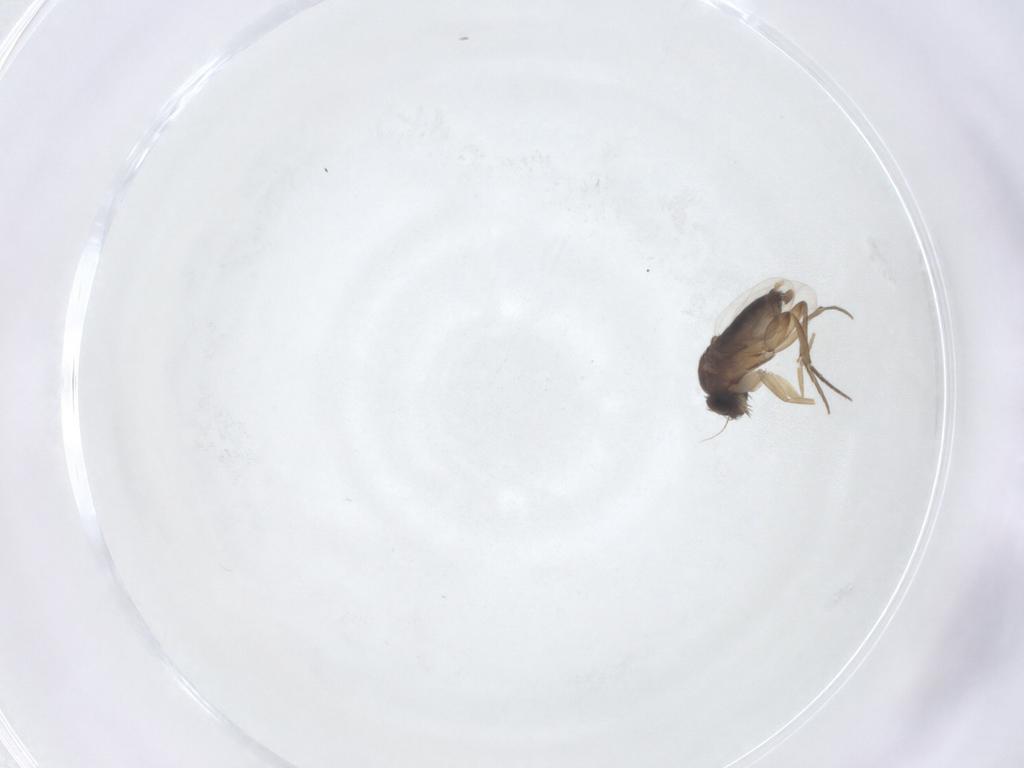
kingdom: Animalia
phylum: Arthropoda
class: Insecta
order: Diptera
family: Phoridae
